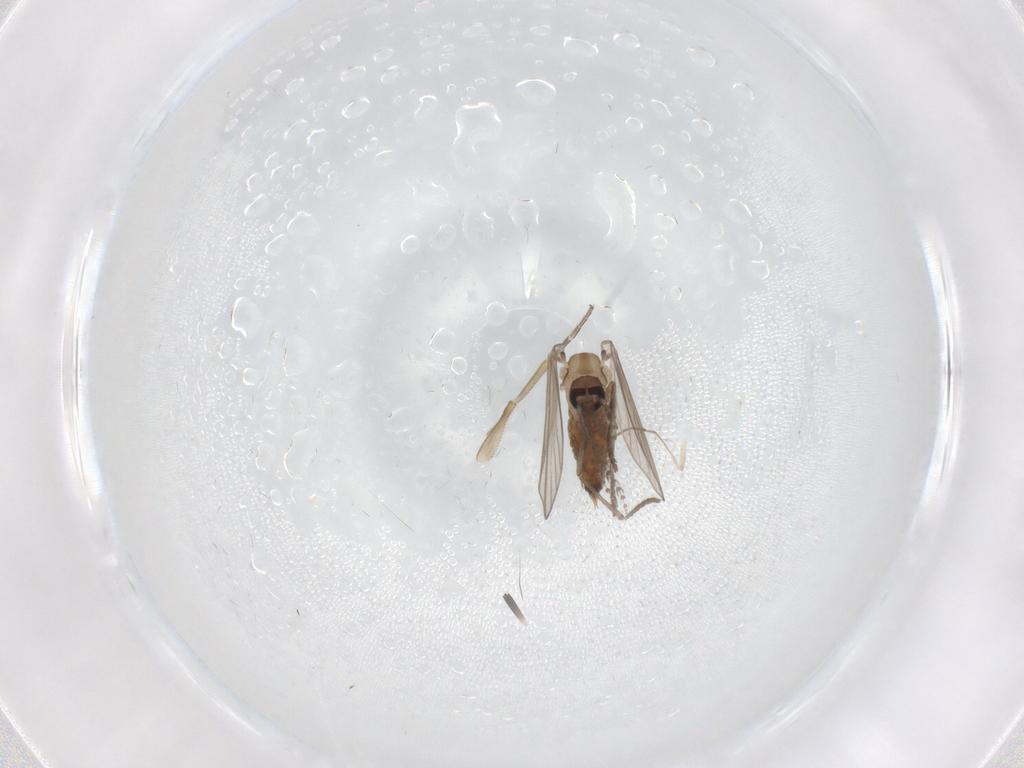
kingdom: Animalia
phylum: Arthropoda
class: Insecta
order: Diptera
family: Psychodidae
